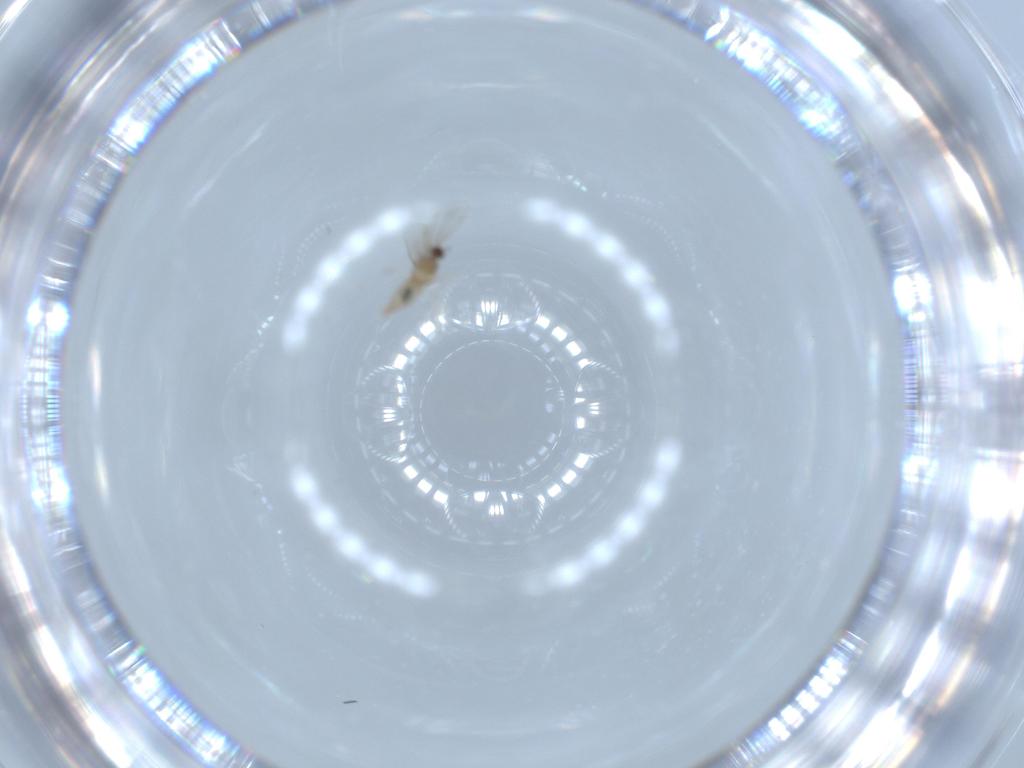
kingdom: Animalia
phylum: Arthropoda
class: Insecta
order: Diptera
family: Cecidomyiidae
